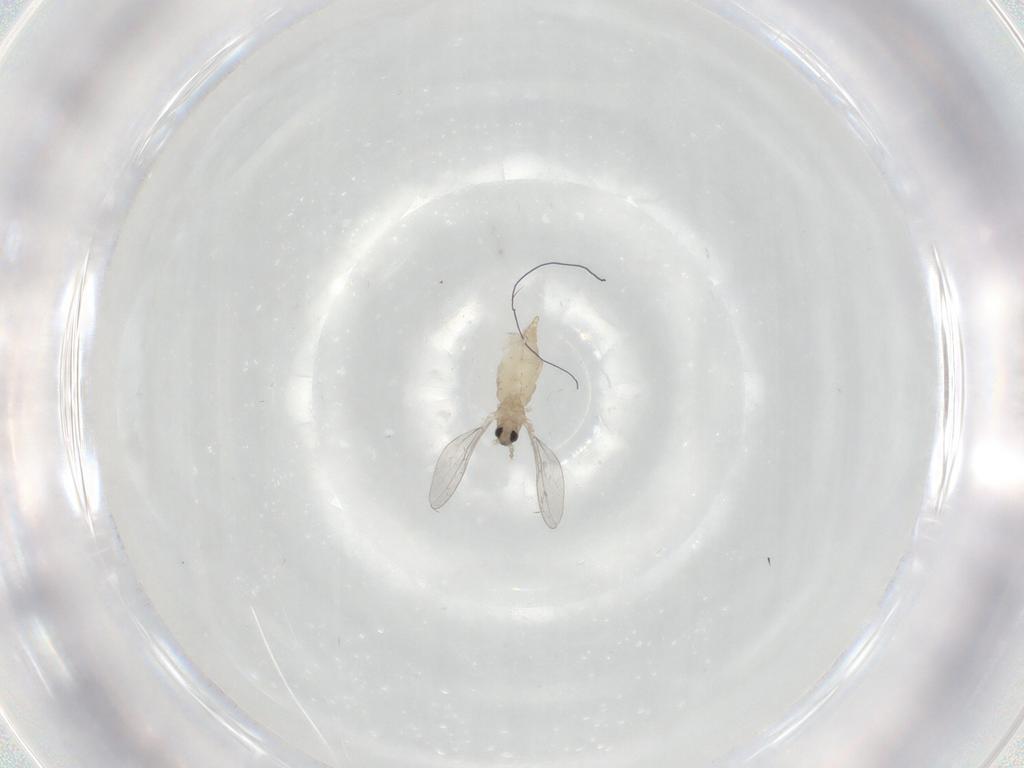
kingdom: Animalia
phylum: Arthropoda
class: Insecta
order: Diptera
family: Cecidomyiidae
